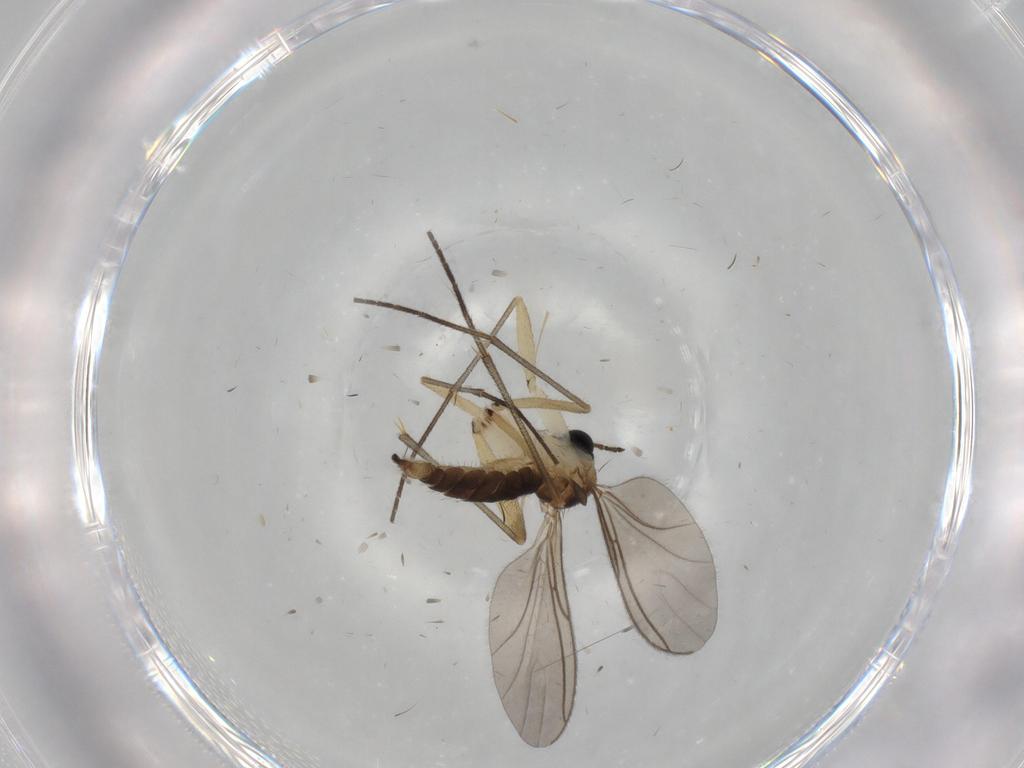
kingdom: Animalia
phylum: Arthropoda
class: Insecta
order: Diptera
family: Sciaridae
